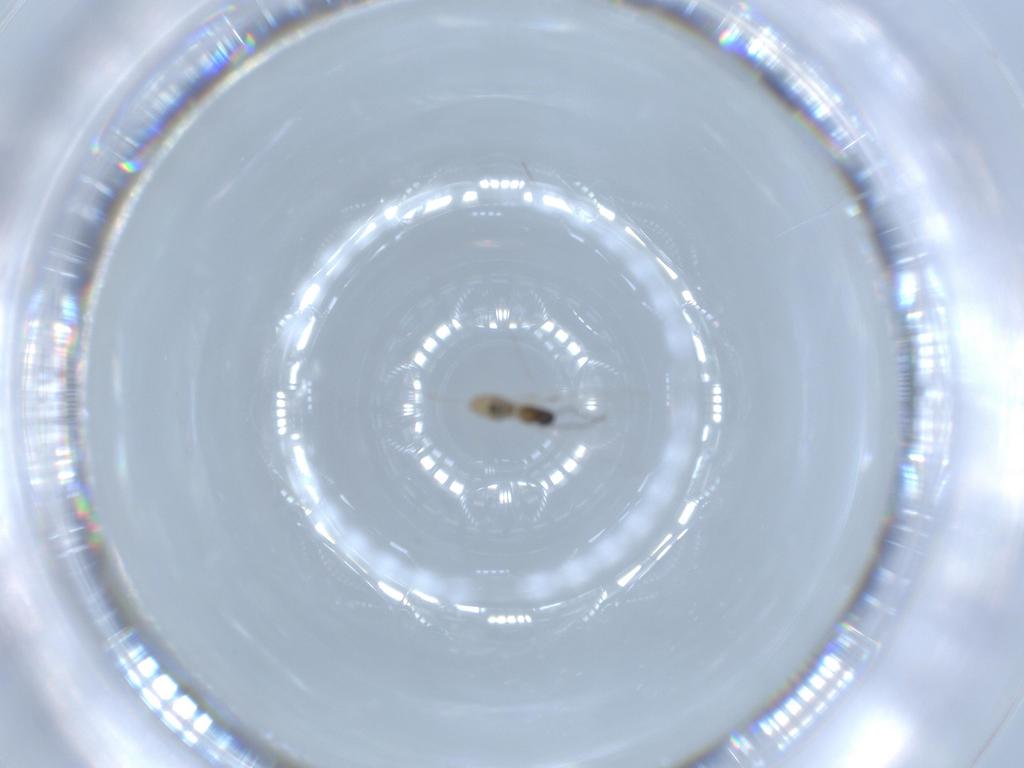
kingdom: Animalia
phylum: Arthropoda
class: Insecta
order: Diptera
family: Cecidomyiidae
